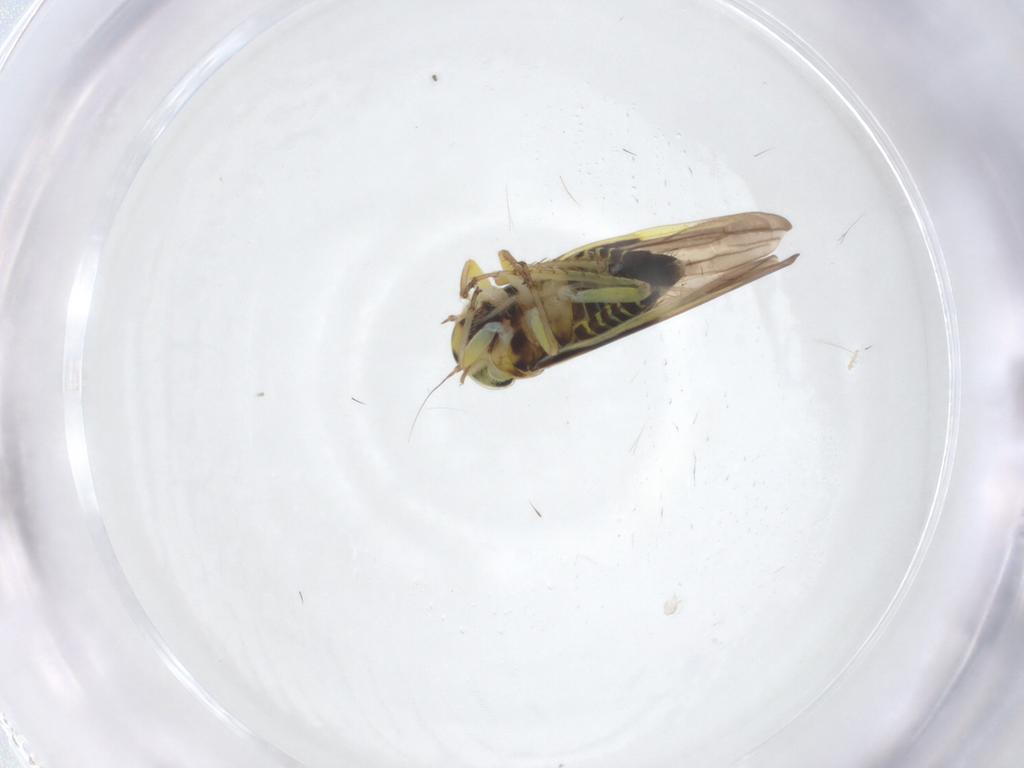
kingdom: Animalia
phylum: Arthropoda
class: Insecta
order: Hemiptera
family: Cicadellidae
